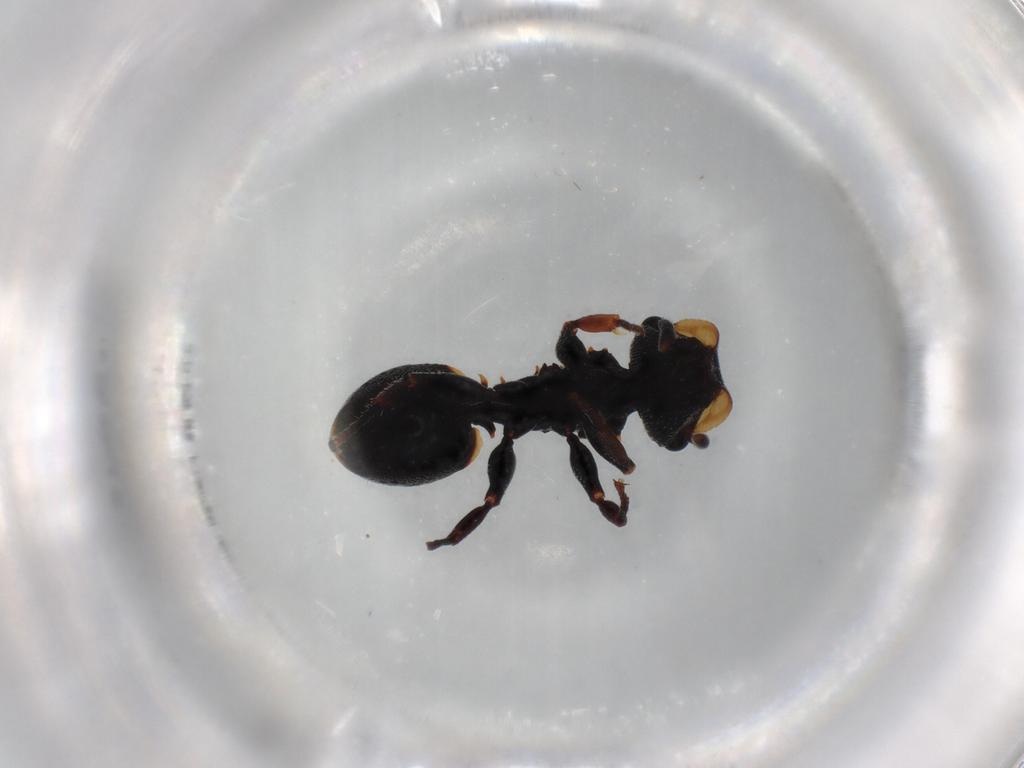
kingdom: Animalia
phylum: Arthropoda
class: Insecta
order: Hymenoptera
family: Formicidae
